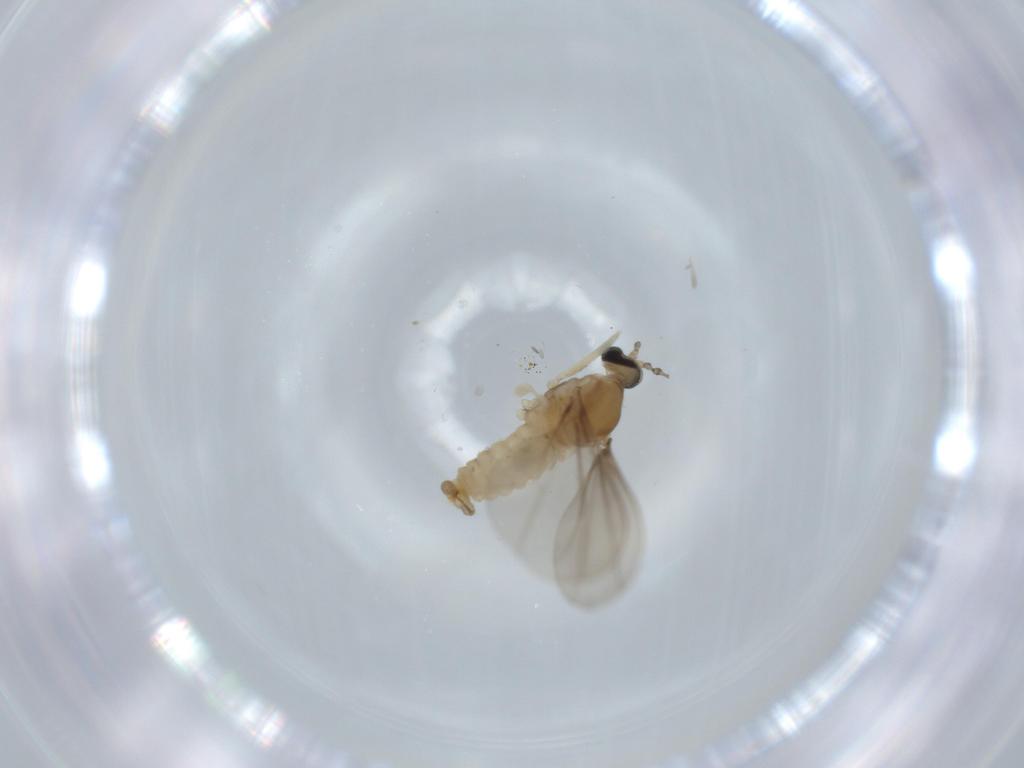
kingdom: Animalia
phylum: Arthropoda
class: Insecta
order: Diptera
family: Cecidomyiidae
